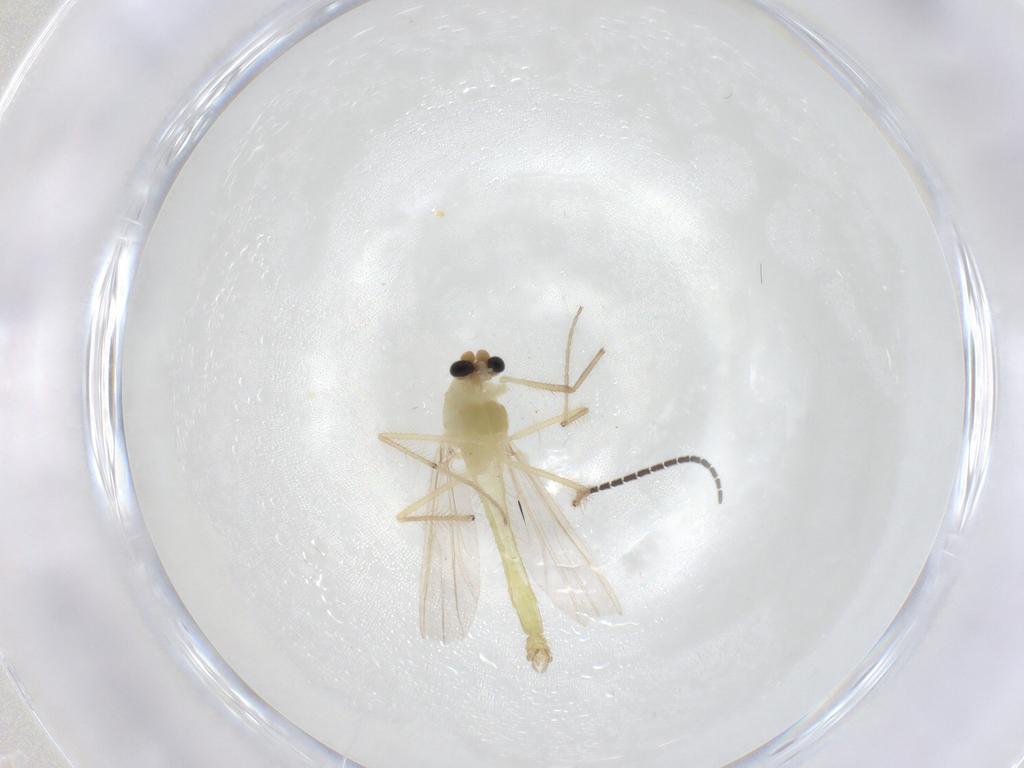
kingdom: Animalia
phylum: Arthropoda
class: Insecta
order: Diptera
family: Chironomidae
